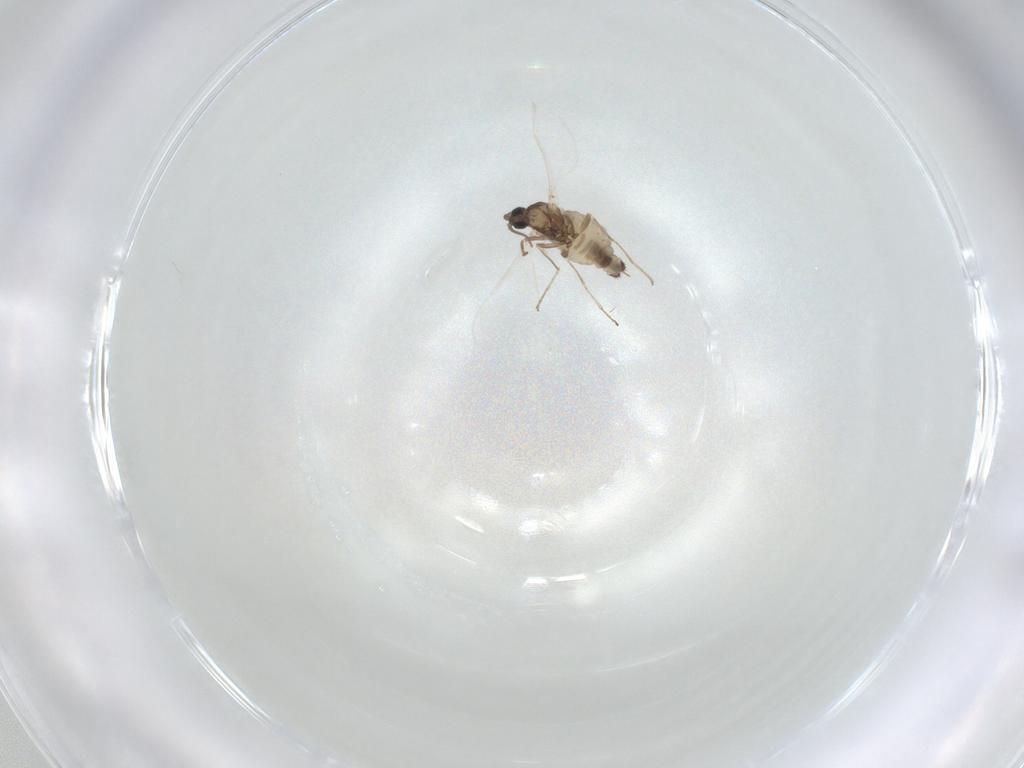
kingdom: Animalia
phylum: Arthropoda
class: Insecta
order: Diptera
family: Cecidomyiidae
